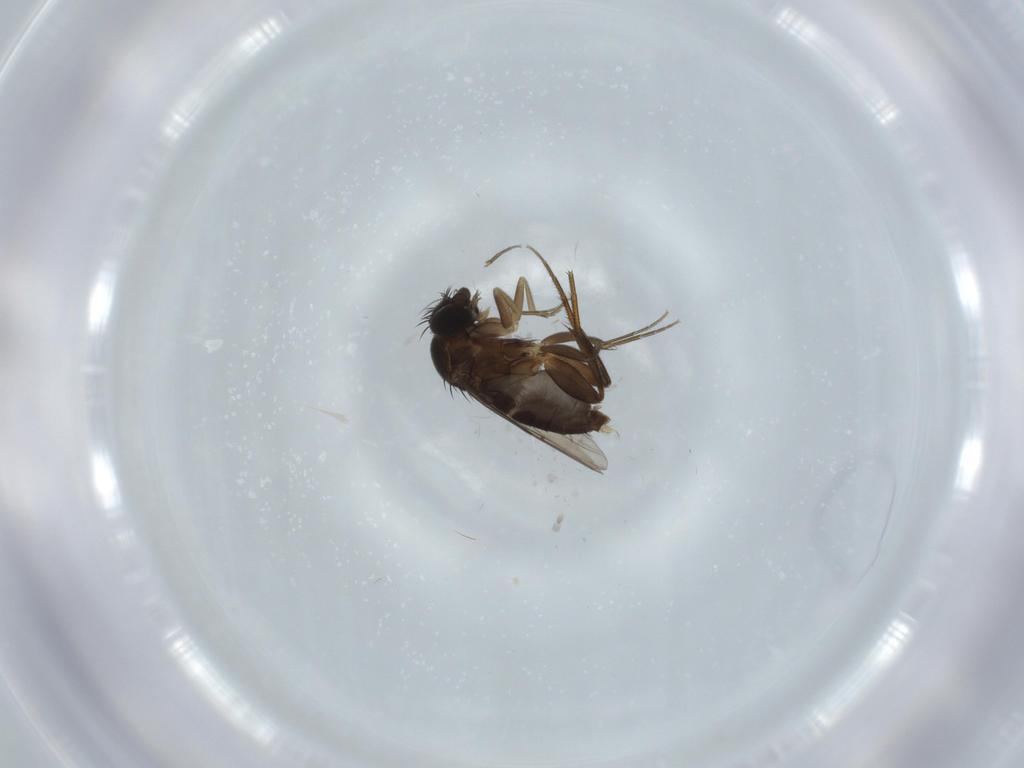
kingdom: Animalia
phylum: Arthropoda
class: Insecta
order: Diptera
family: Phoridae
